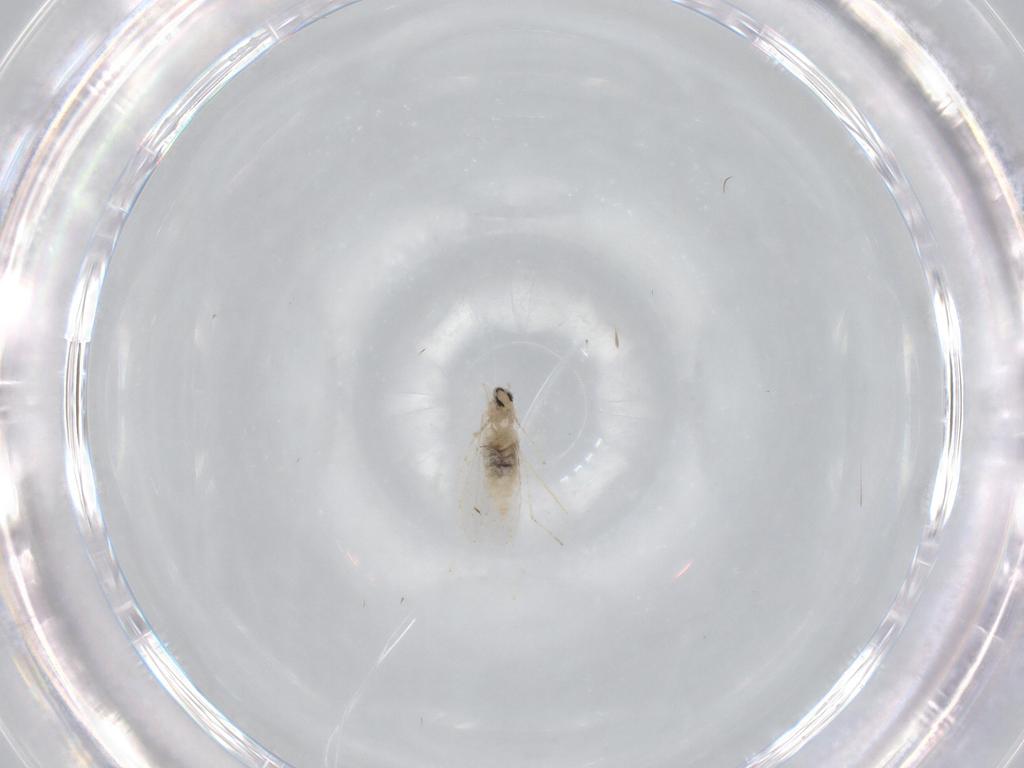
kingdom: Animalia
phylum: Arthropoda
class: Insecta
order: Diptera
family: Cecidomyiidae
